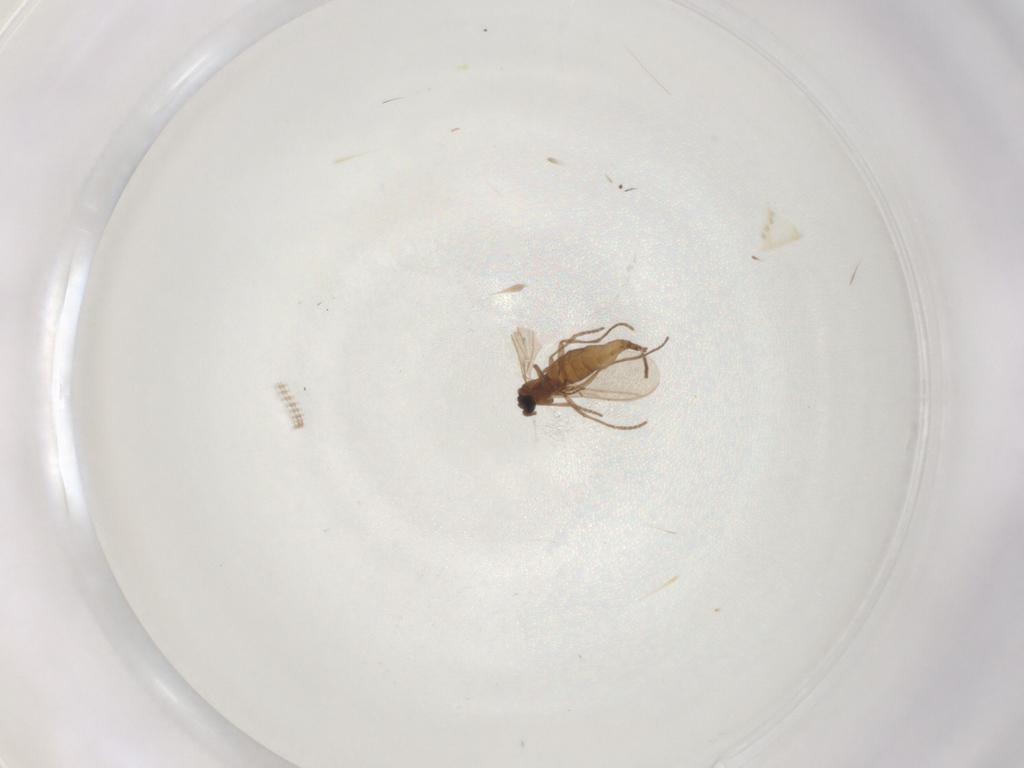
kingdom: Animalia
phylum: Arthropoda
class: Insecta
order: Diptera
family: Sciaridae
